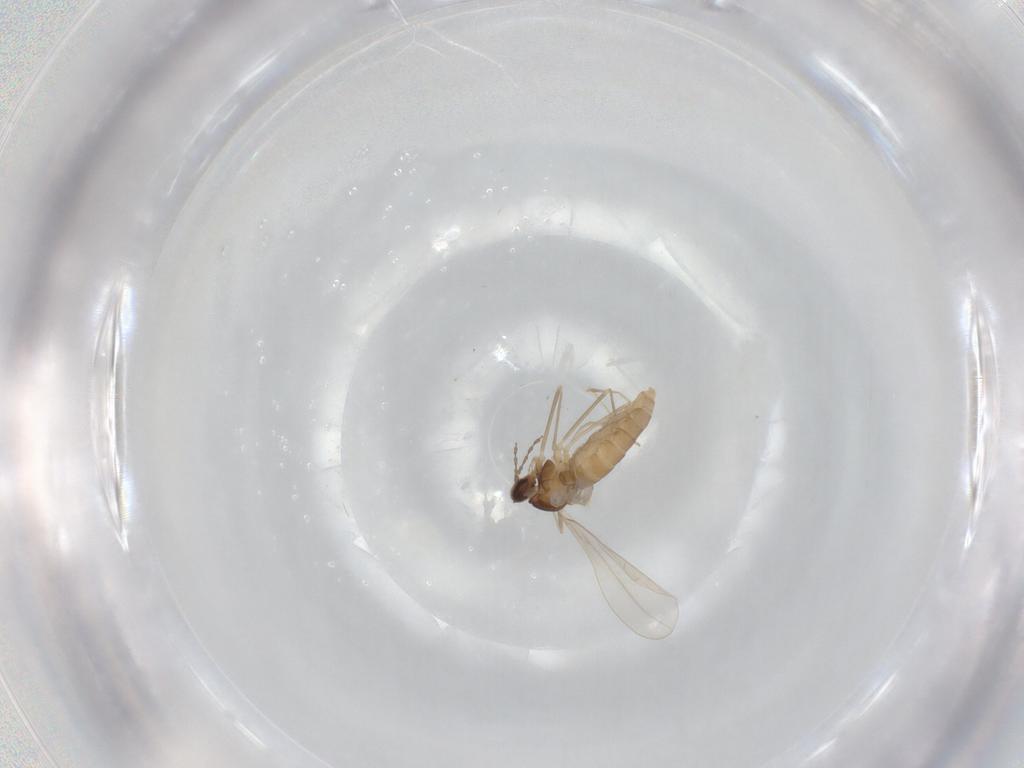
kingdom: Animalia
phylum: Arthropoda
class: Insecta
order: Diptera
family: Cecidomyiidae
